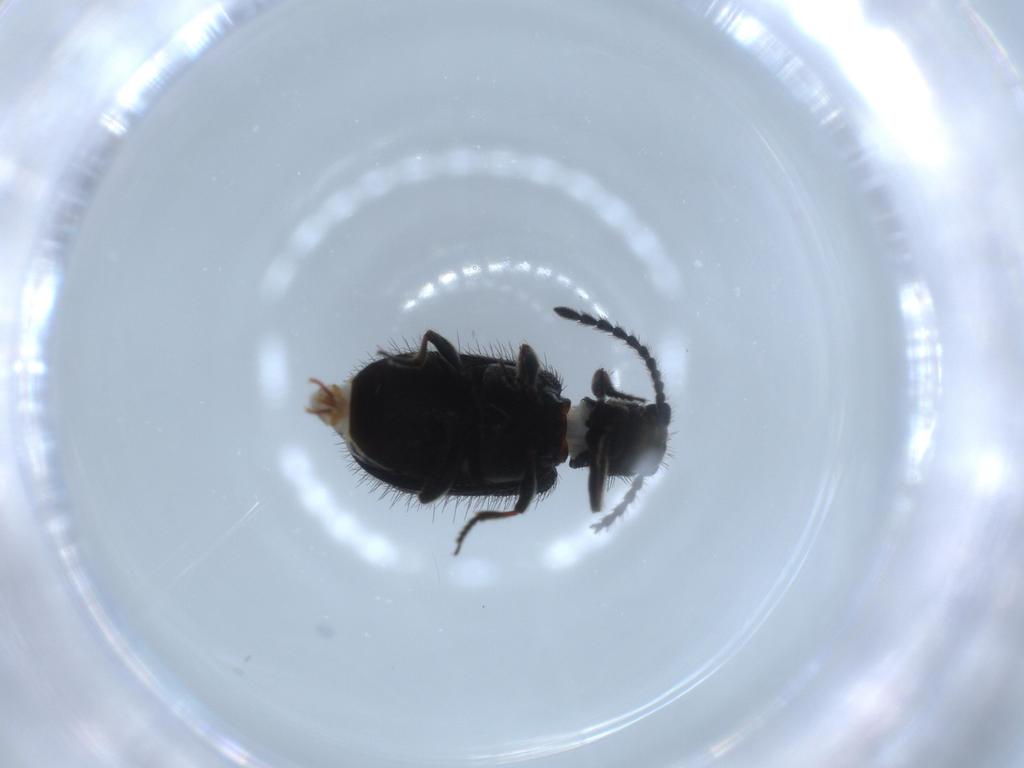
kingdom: Animalia
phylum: Arthropoda
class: Insecta
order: Coleoptera
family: Ptinidae
